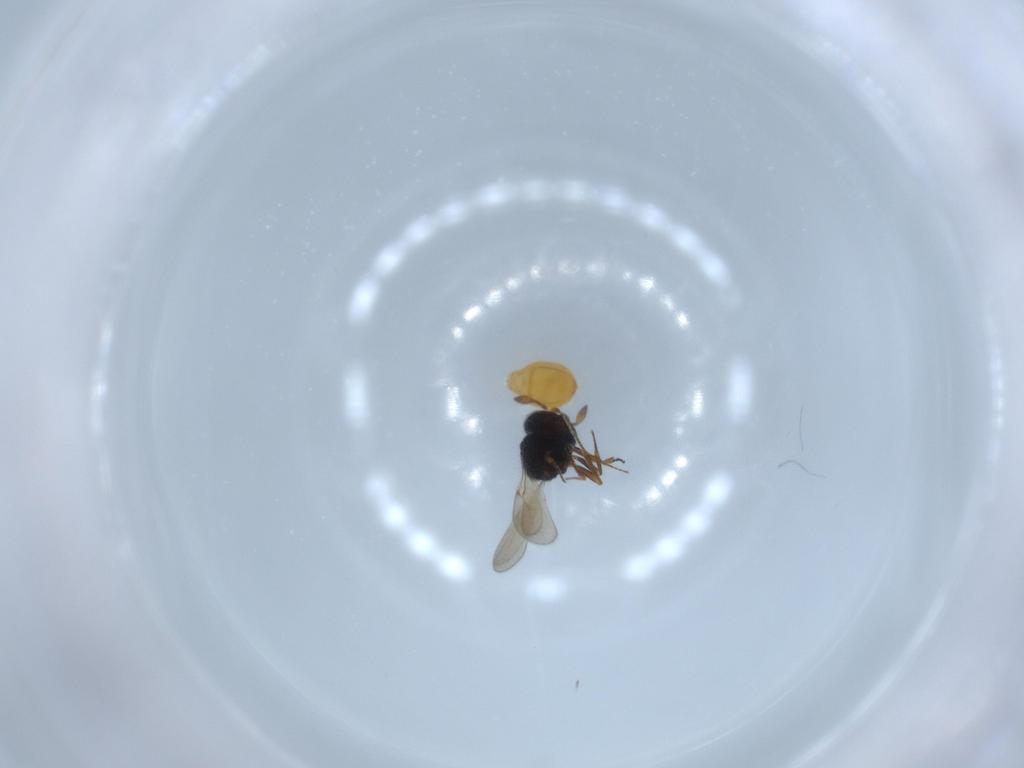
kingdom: Animalia
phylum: Arthropoda
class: Insecta
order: Hymenoptera
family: Scelionidae
